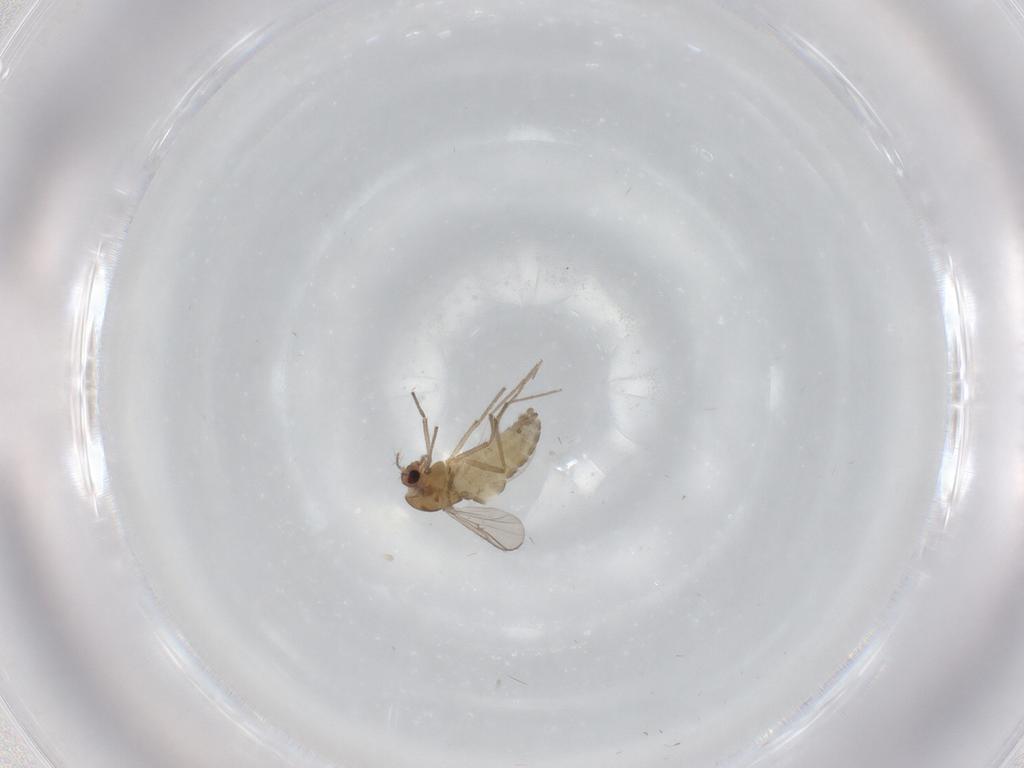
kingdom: Animalia
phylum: Arthropoda
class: Insecta
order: Diptera
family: Chironomidae
